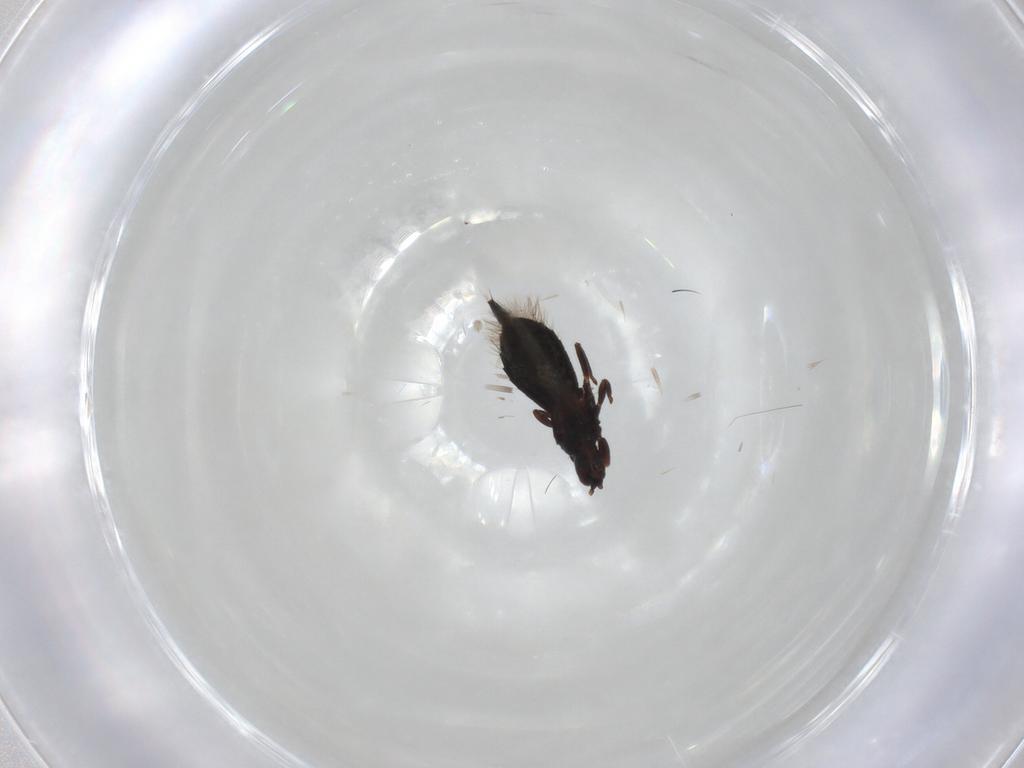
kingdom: Animalia
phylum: Arthropoda
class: Insecta
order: Thysanoptera
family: Phlaeothripidae
